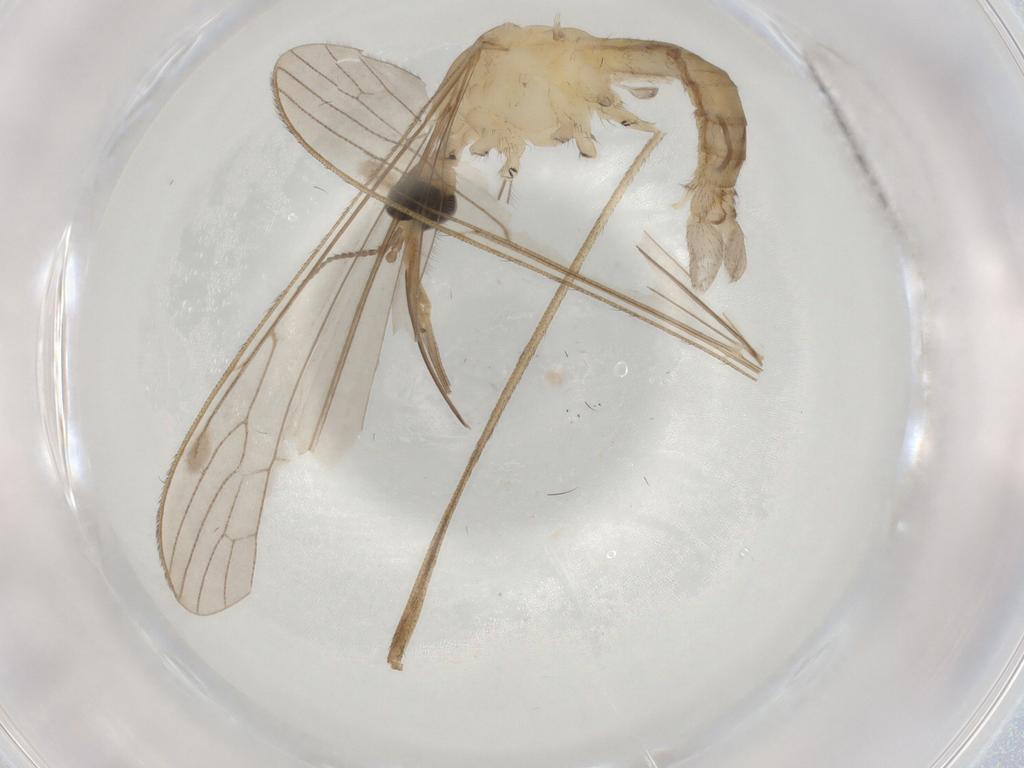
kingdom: Animalia
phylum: Arthropoda
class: Insecta
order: Diptera
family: Limoniidae
